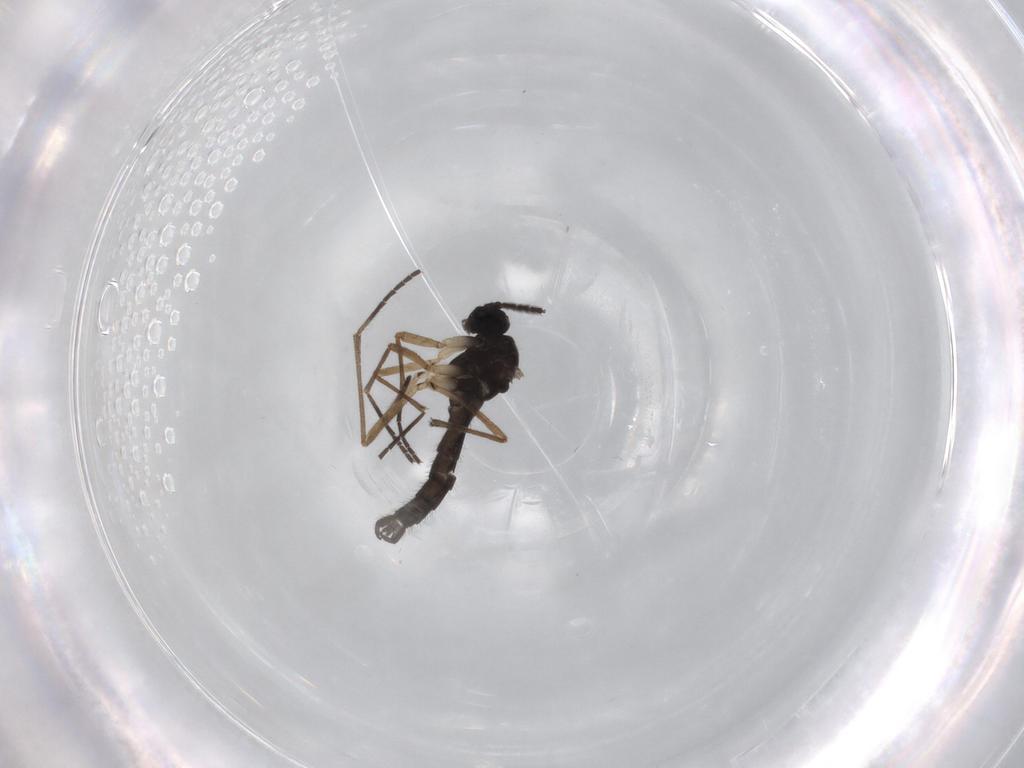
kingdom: Animalia
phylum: Arthropoda
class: Insecta
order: Diptera
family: Sciaridae
